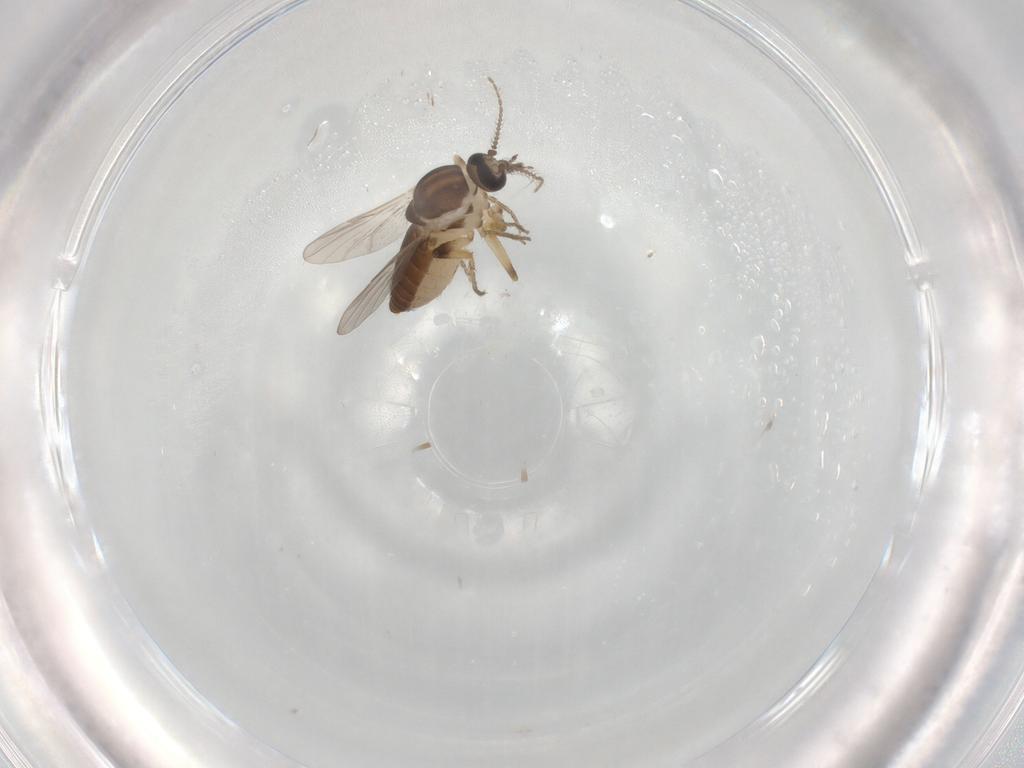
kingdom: Animalia
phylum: Arthropoda
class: Insecta
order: Diptera
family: Ceratopogonidae
